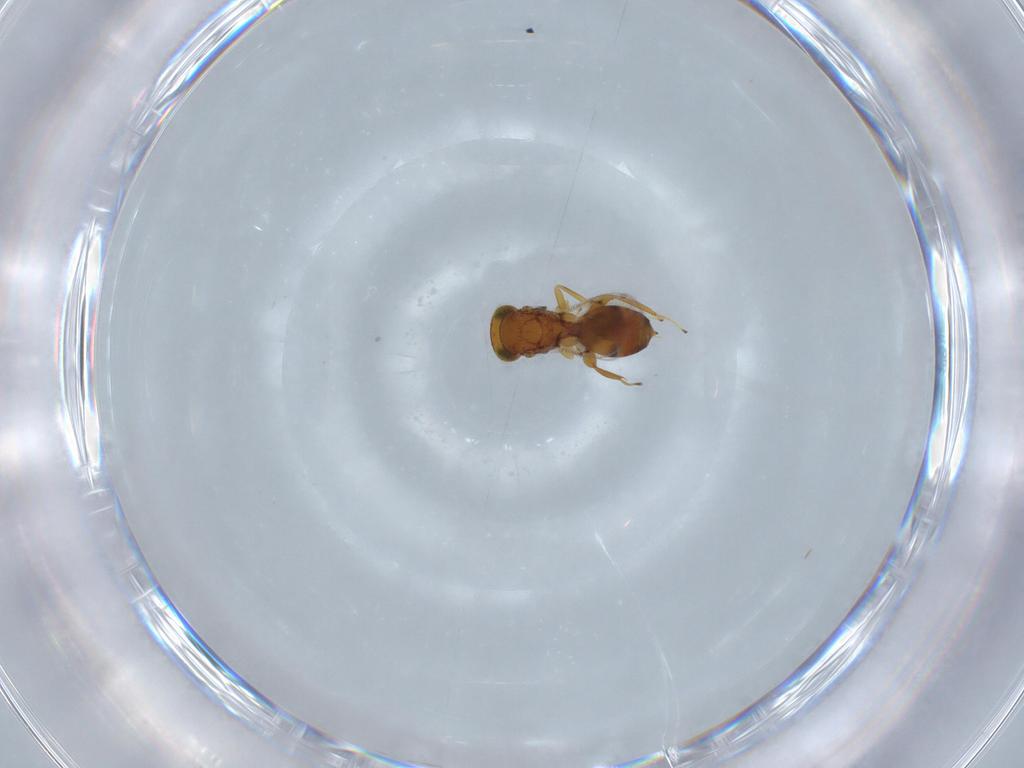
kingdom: Animalia
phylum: Arthropoda
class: Insecta
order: Hymenoptera
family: Moranilidae
